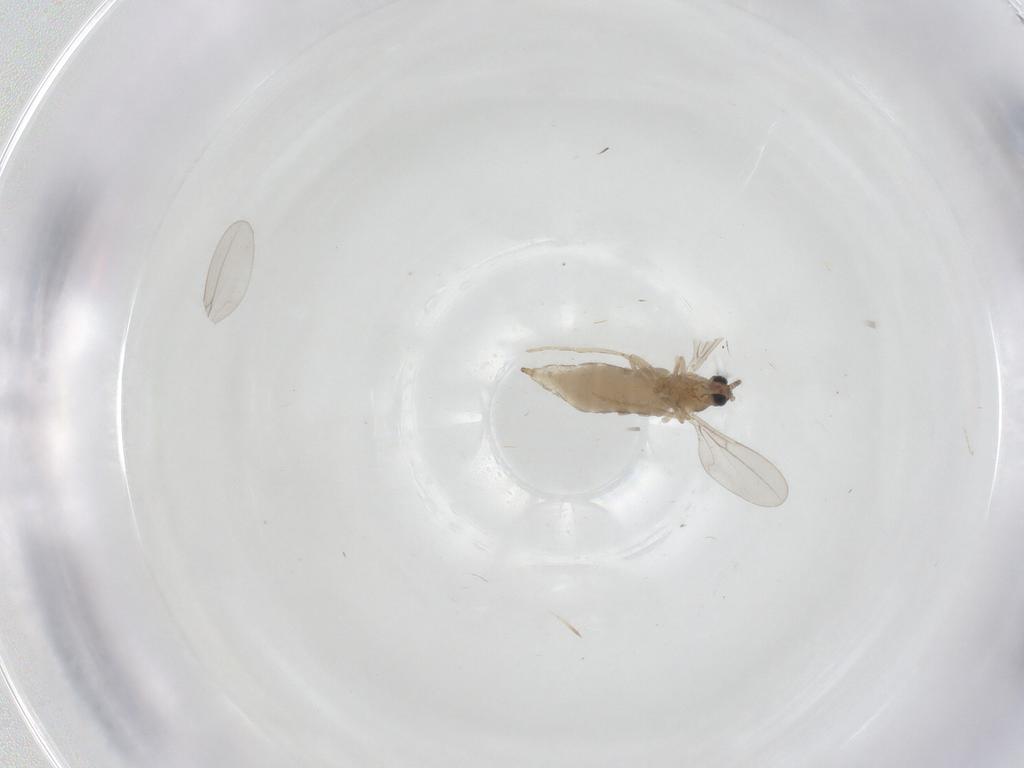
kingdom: Animalia
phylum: Arthropoda
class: Insecta
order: Diptera
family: Cecidomyiidae
